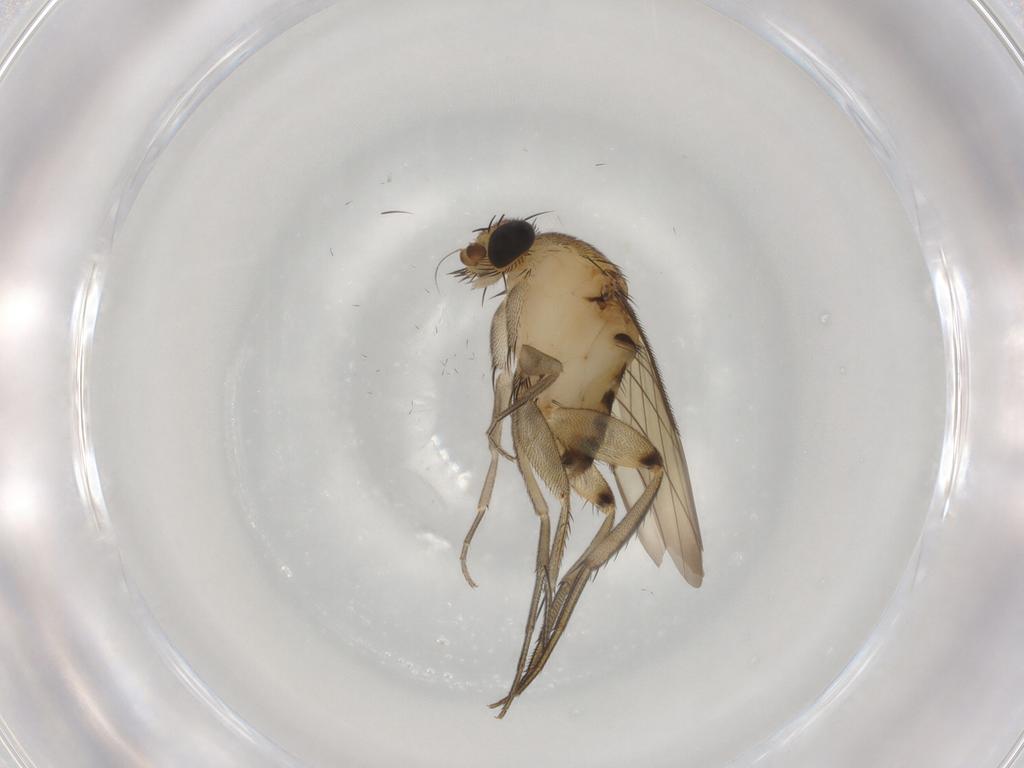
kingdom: Animalia
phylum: Arthropoda
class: Insecta
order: Diptera
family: Phoridae
